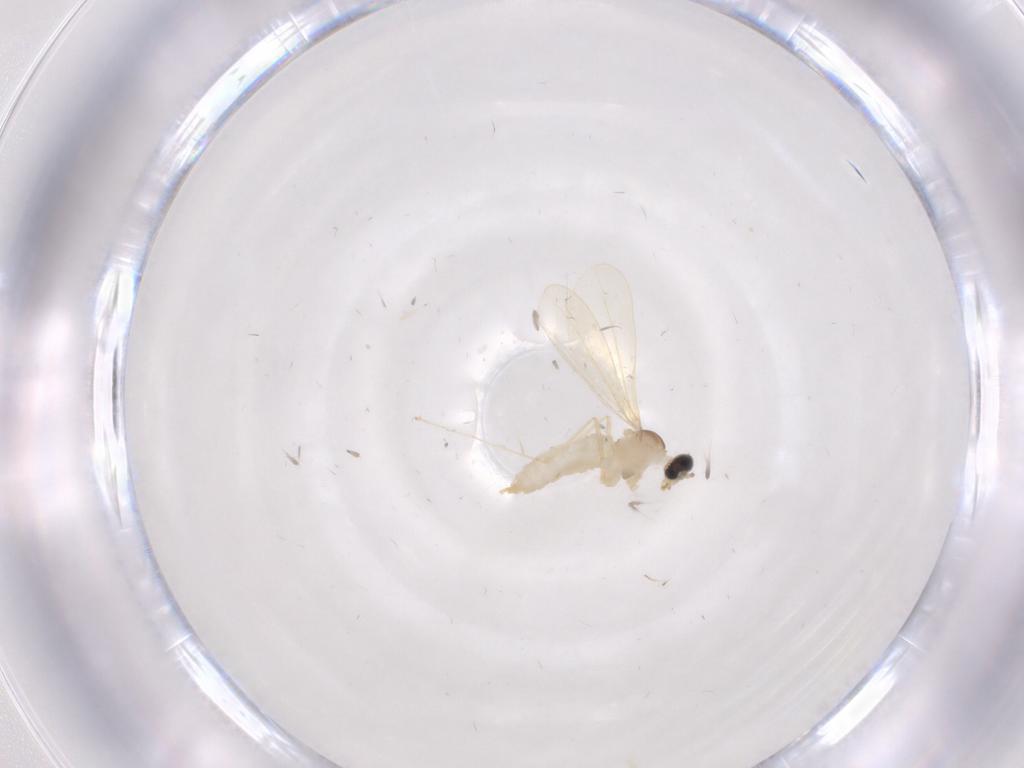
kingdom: Animalia
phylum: Arthropoda
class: Insecta
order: Diptera
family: Cecidomyiidae
